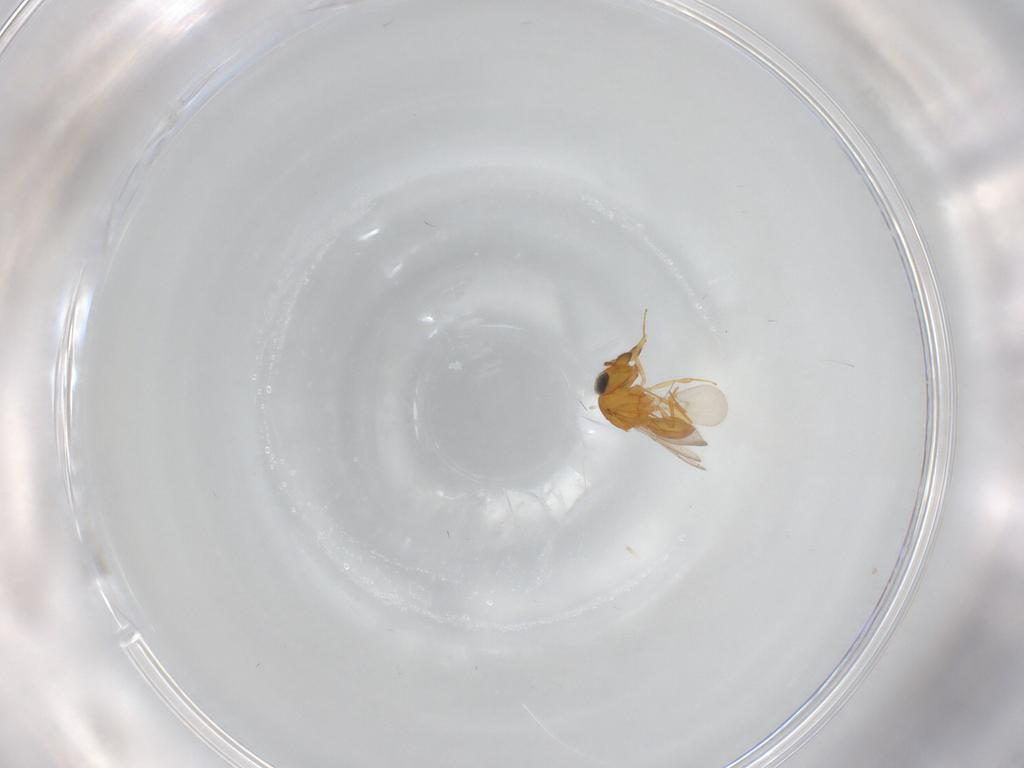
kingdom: Animalia
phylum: Arthropoda
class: Insecta
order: Hymenoptera
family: Scelionidae
